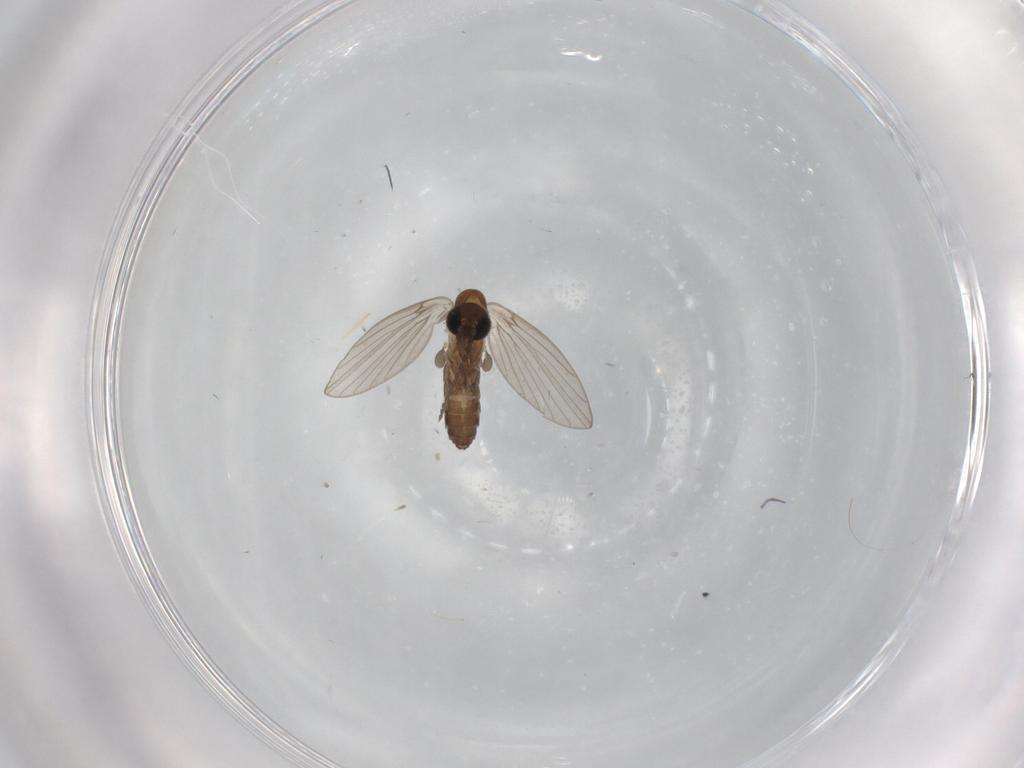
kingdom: Animalia
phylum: Arthropoda
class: Insecta
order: Diptera
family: Psychodidae
